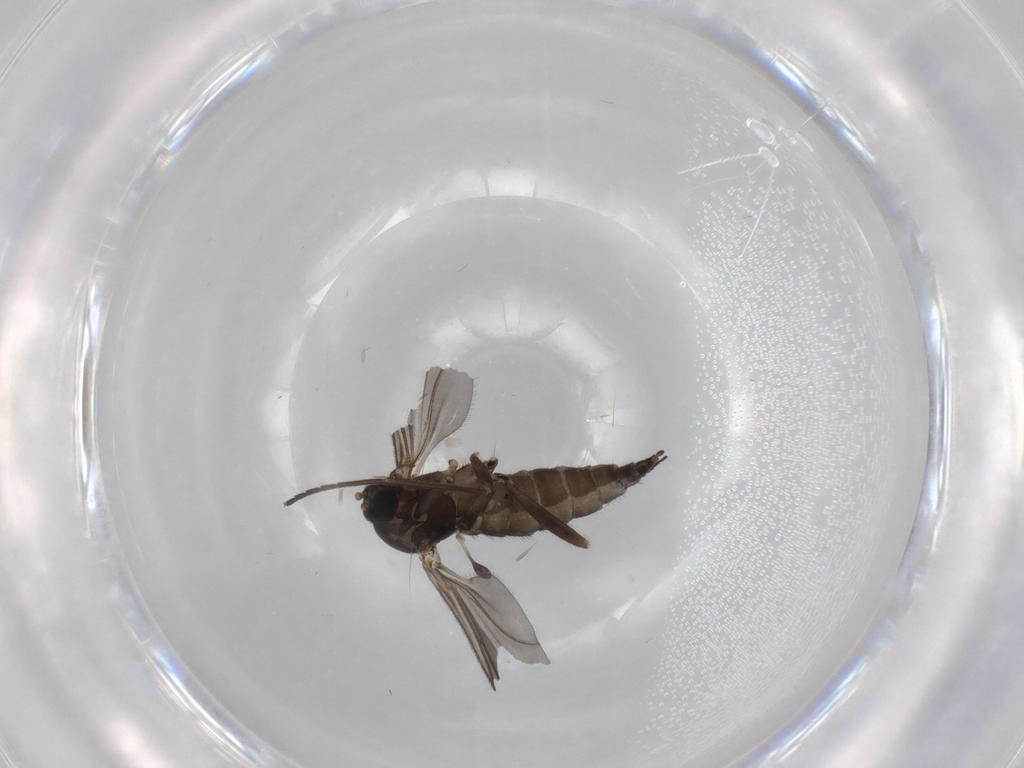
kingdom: Animalia
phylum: Arthropoda
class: Insecta
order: Diptera
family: Sciaridae
